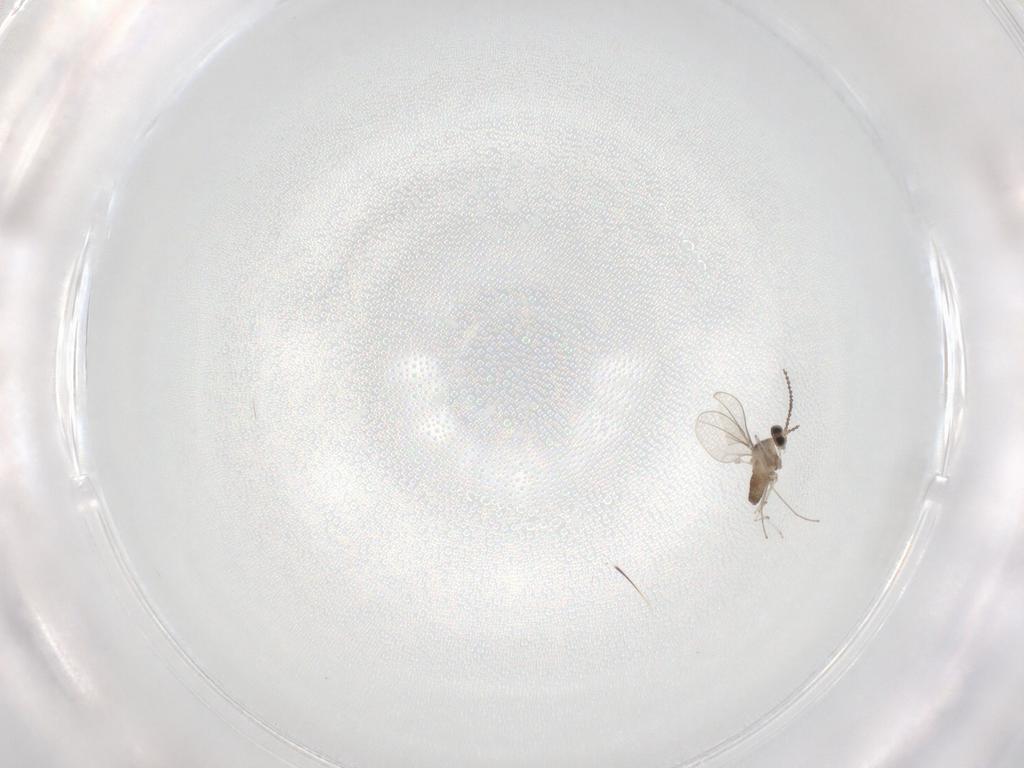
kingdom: Animalia
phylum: Arthropoda
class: Insecta
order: Diptera
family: Cecidomyiidae
